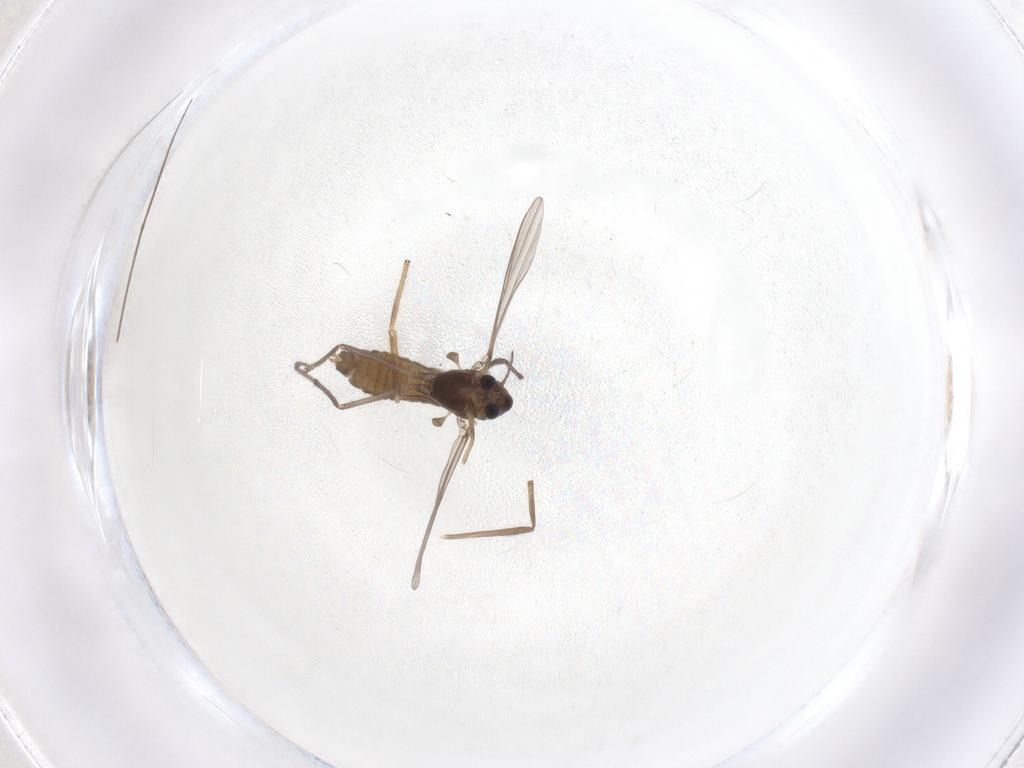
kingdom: Animalia
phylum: Arthropoda
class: Insecta
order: Diptera
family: Chironomidae
